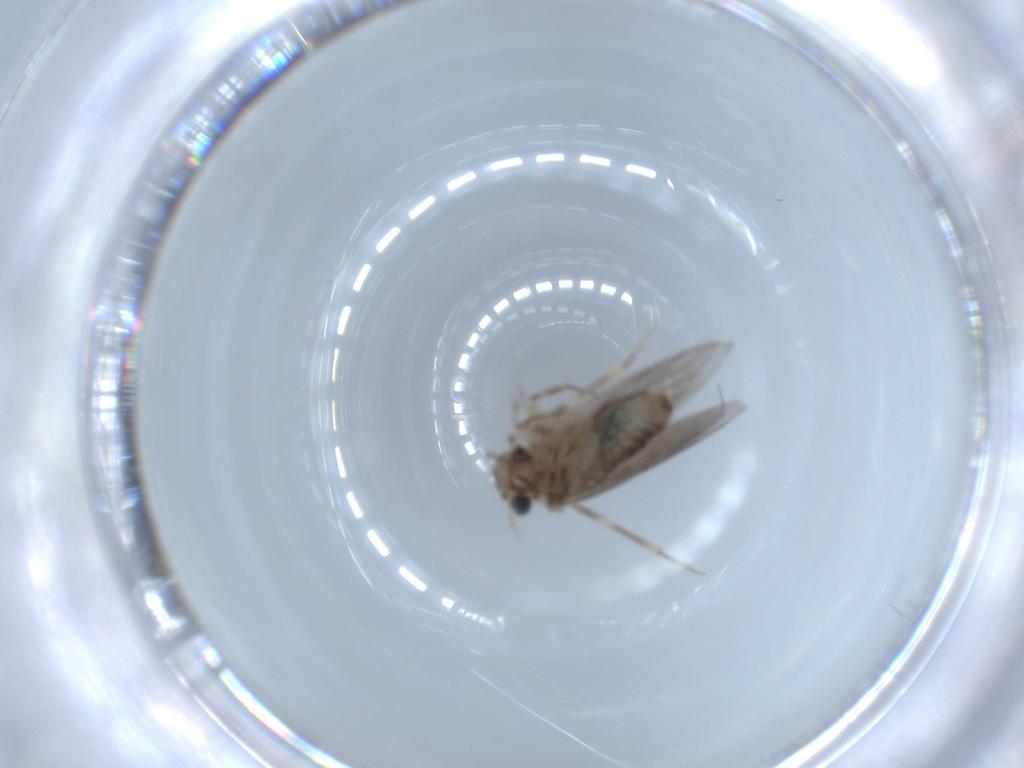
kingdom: Animalia
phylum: Arthropoda
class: Insecta
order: Psocodea
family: Lepidopsocidae
